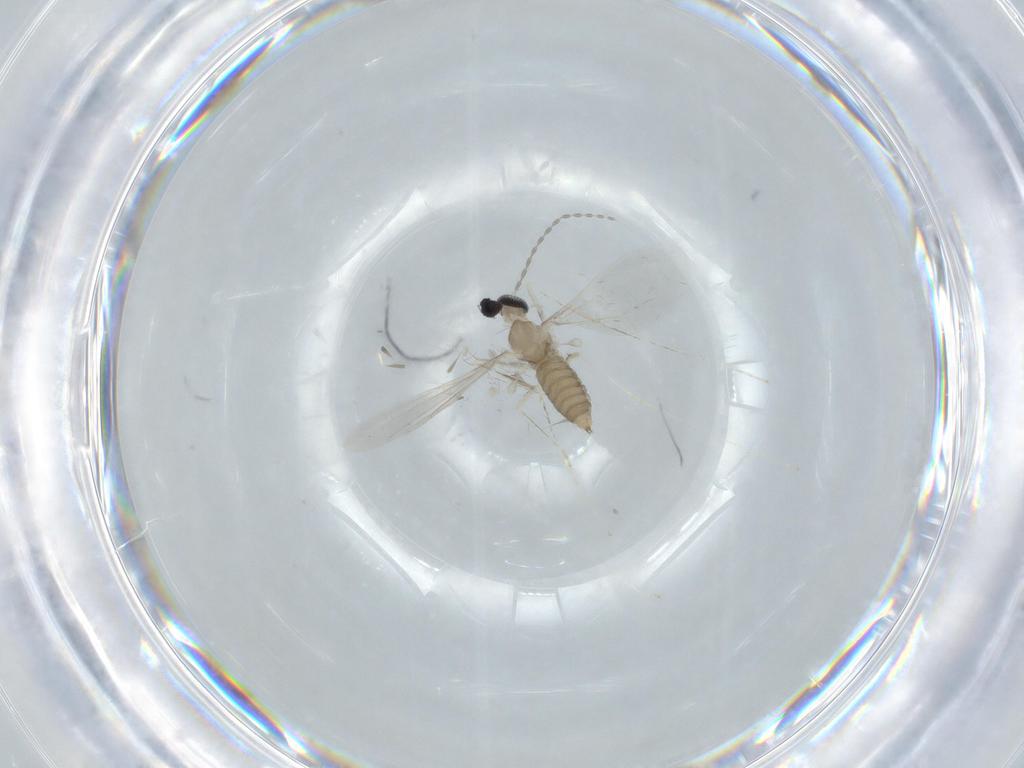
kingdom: Animalia
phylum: Arthropoda
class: Insecta
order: Diptera
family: Cecidomyiidae
